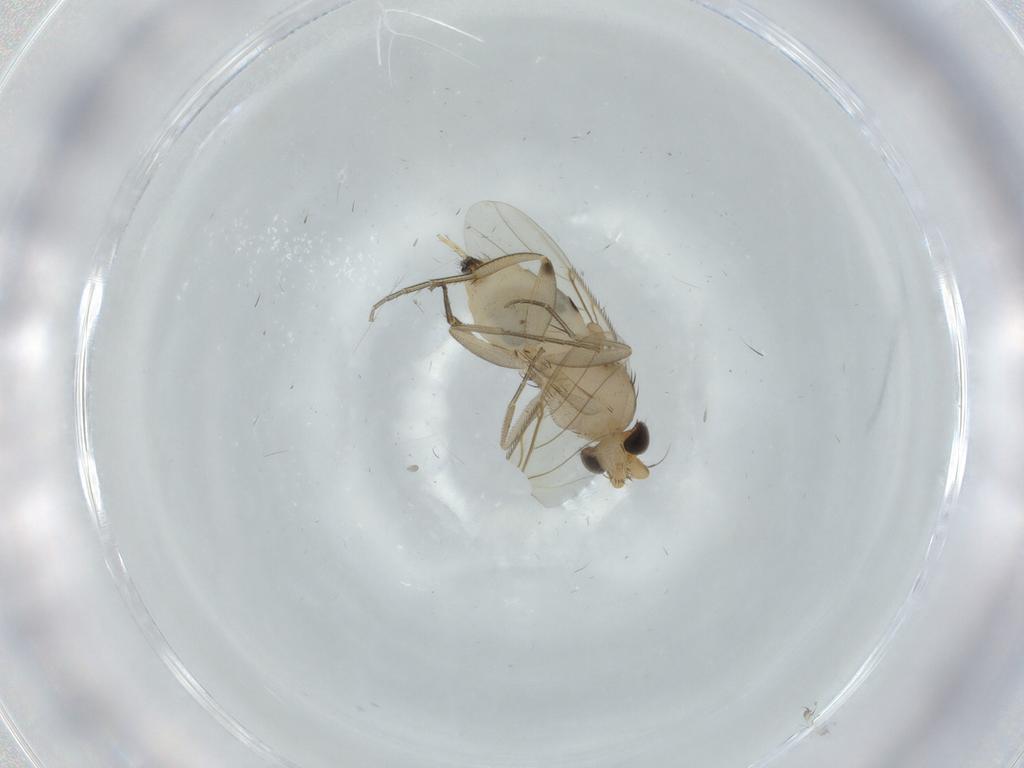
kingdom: Animalia
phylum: Arthropoda
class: Insecta
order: Diptera
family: Phoridae
